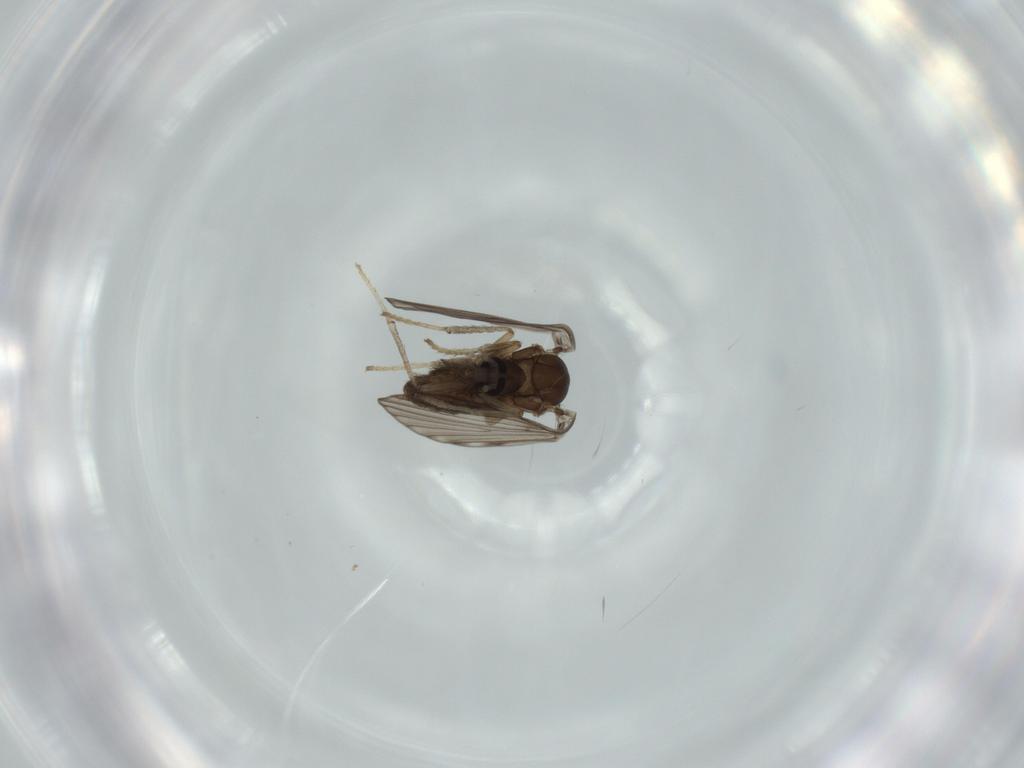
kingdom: Animalia
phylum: Arthropoda
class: Insecta
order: Diptera
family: Psychodidae
